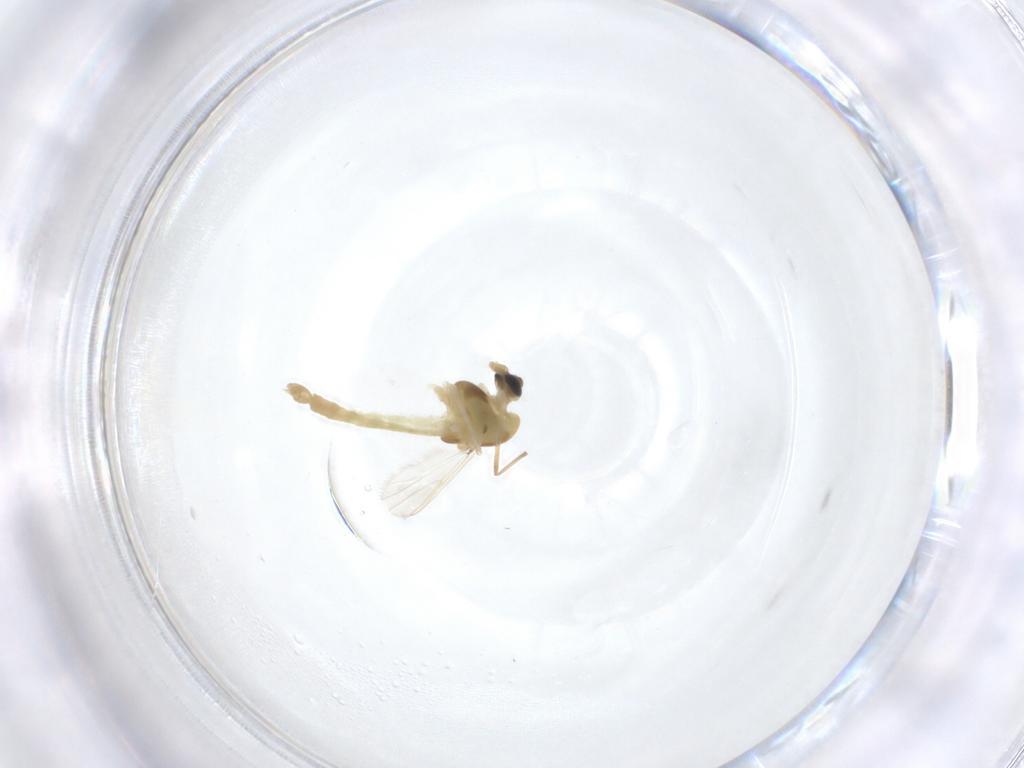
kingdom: Animalia
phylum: Arthropoda
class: Insecta
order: Diptera
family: Chironomidae
